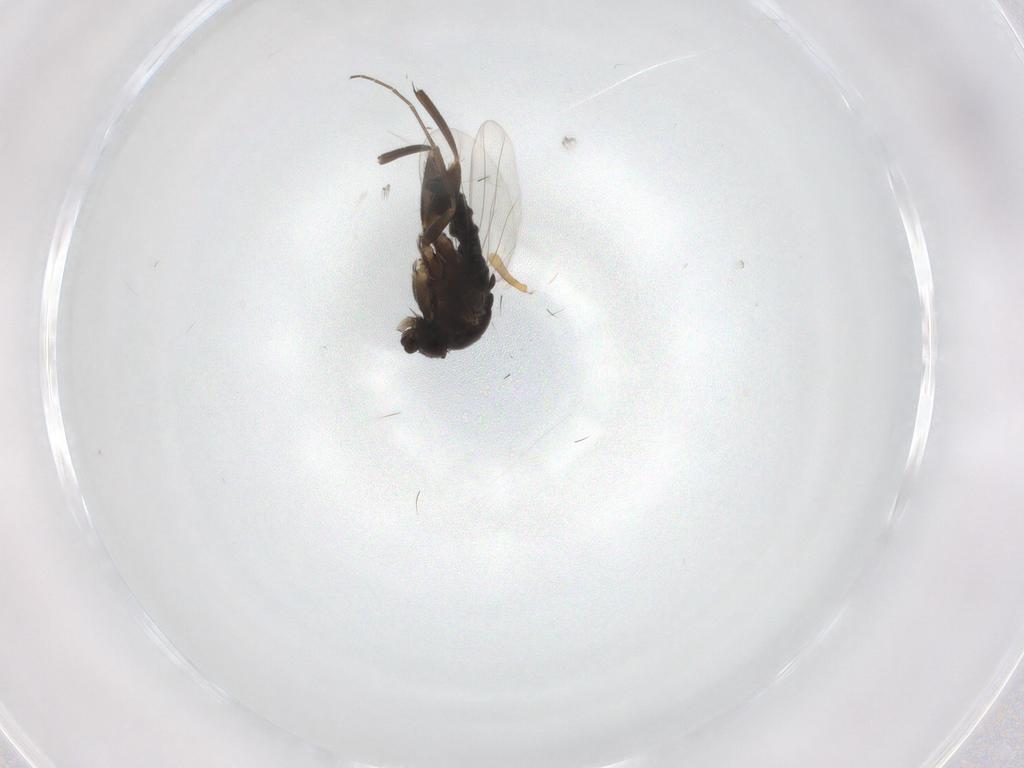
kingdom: Animalia
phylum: Arthropoda
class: Insecta
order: Diptera
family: Phoridae
